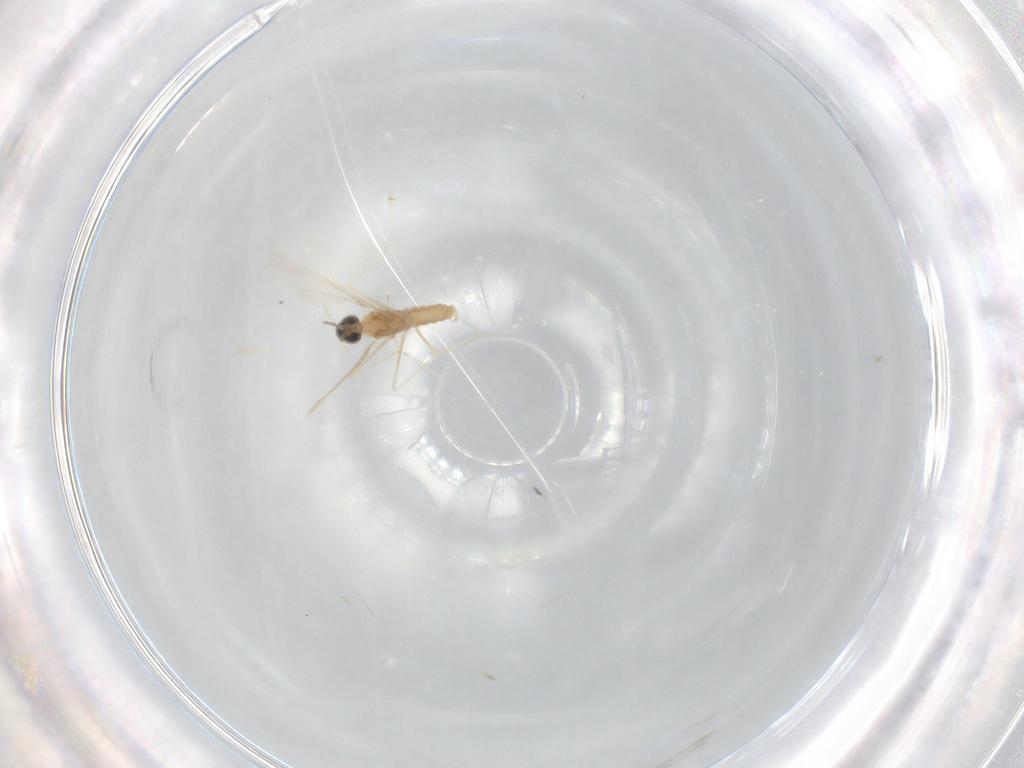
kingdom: Animalia
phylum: Arthropoda
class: Insecta
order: Diptera
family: Cecidomyiidae
